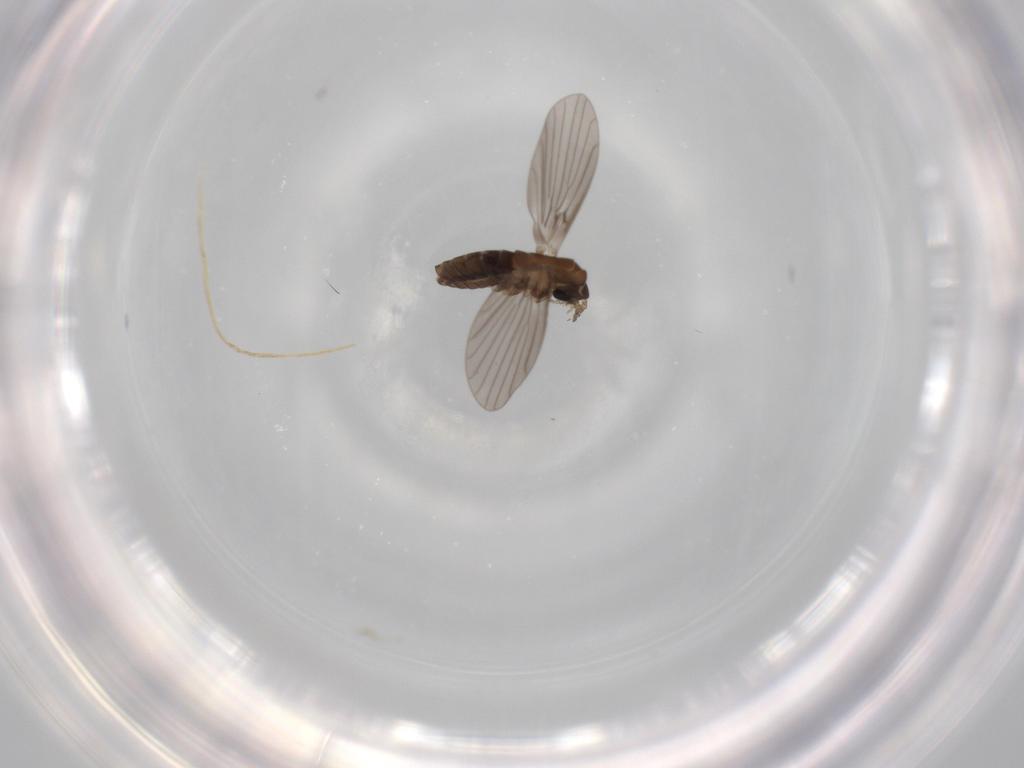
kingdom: Animalia
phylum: Arthropoda
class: Insecta
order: Diptera
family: Psychodidae
